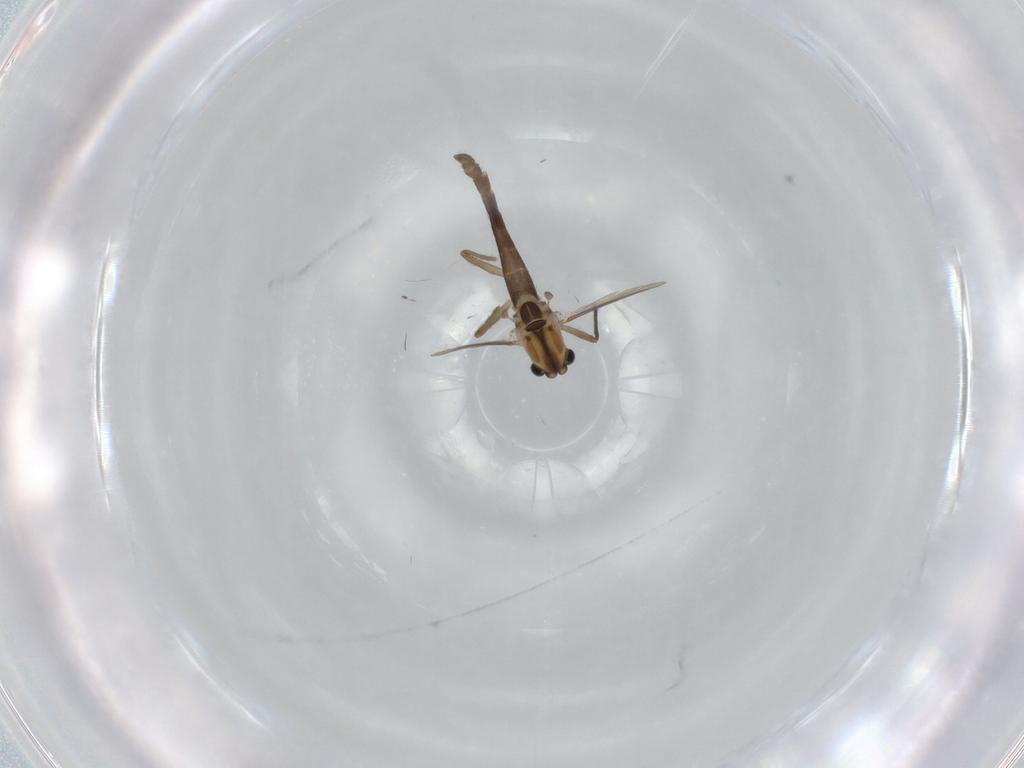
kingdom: Animalia
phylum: Arthropoda
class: Insecta
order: Diptera
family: Chironomidae
